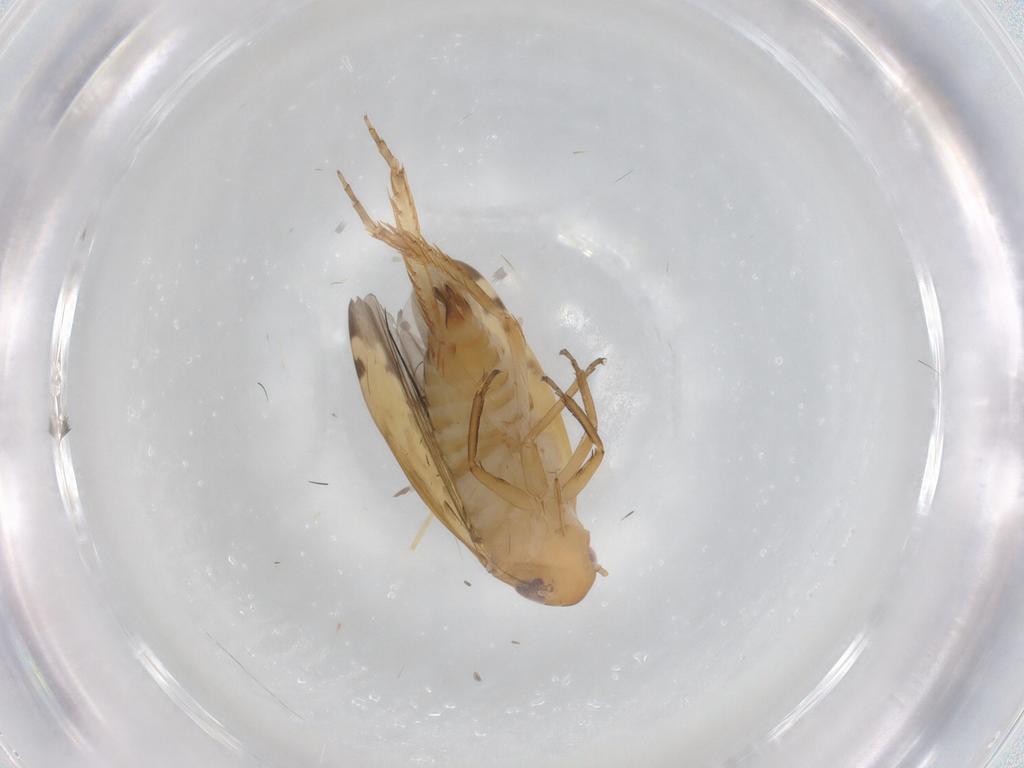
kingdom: Animalia
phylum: Arthropoda
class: Insecta
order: Hemiptera
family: Cicadellidae
